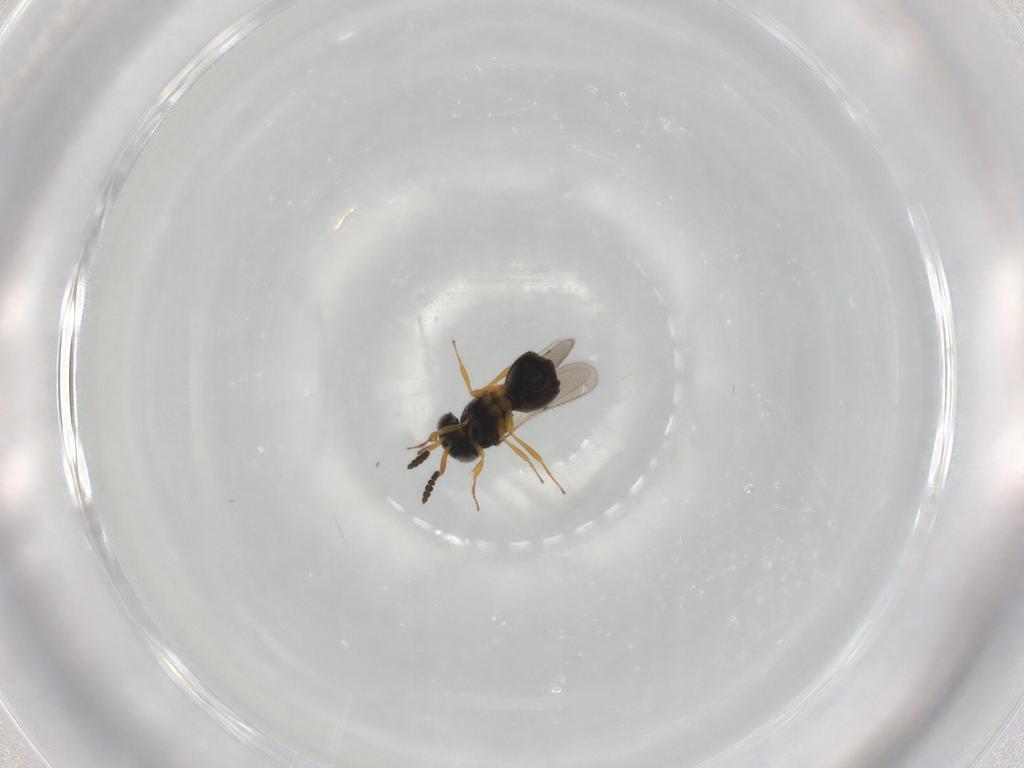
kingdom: Animalia
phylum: Arthropoda
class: Insecta
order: Hymenoptera
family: Scelionidae
